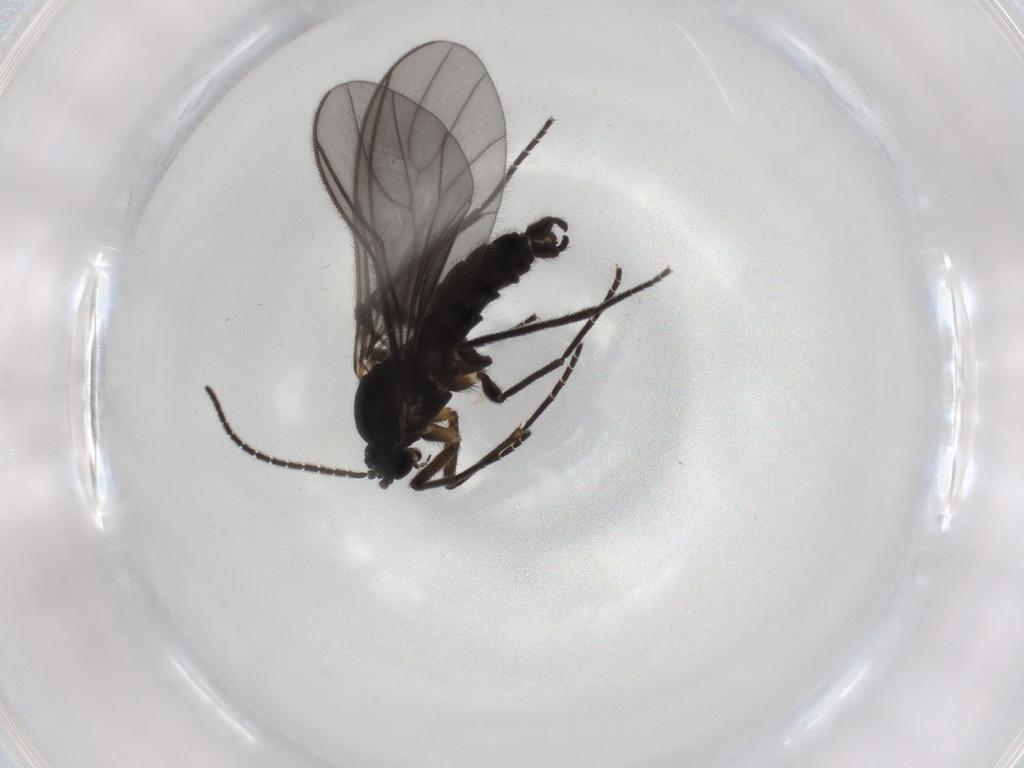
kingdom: Animalia
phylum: Arthropoda
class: Insecta
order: Diptera
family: Sciaridae
